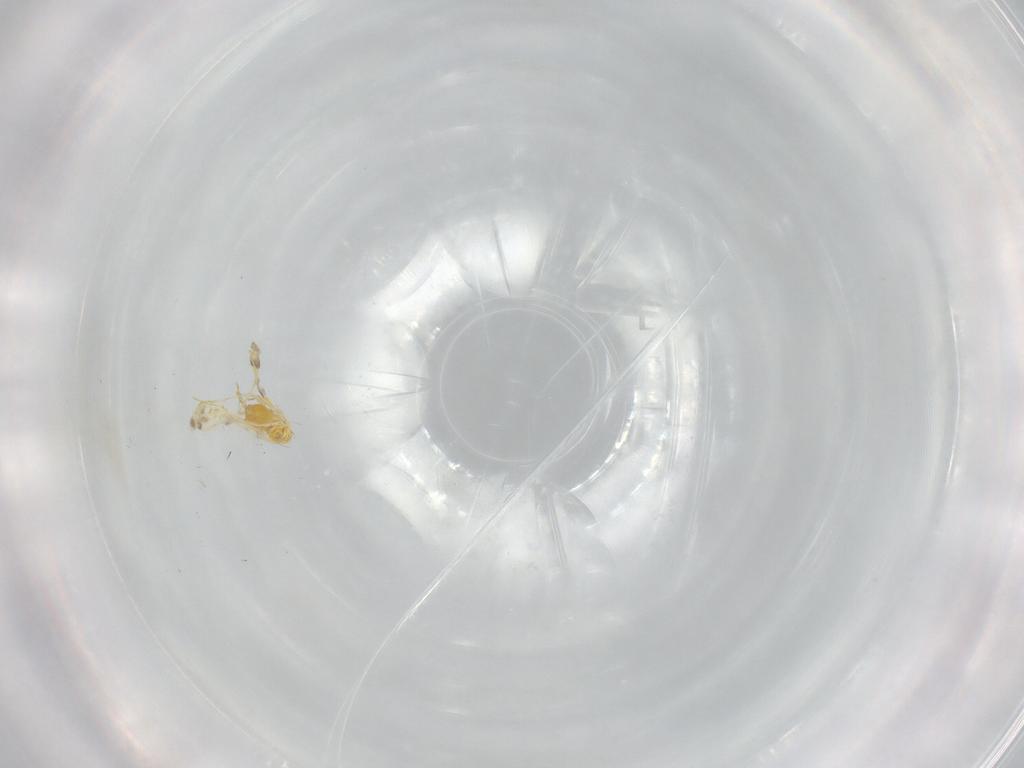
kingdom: Animalia
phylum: Arthropoda
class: Insecta
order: Hemiptera
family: Aleyrodidae
